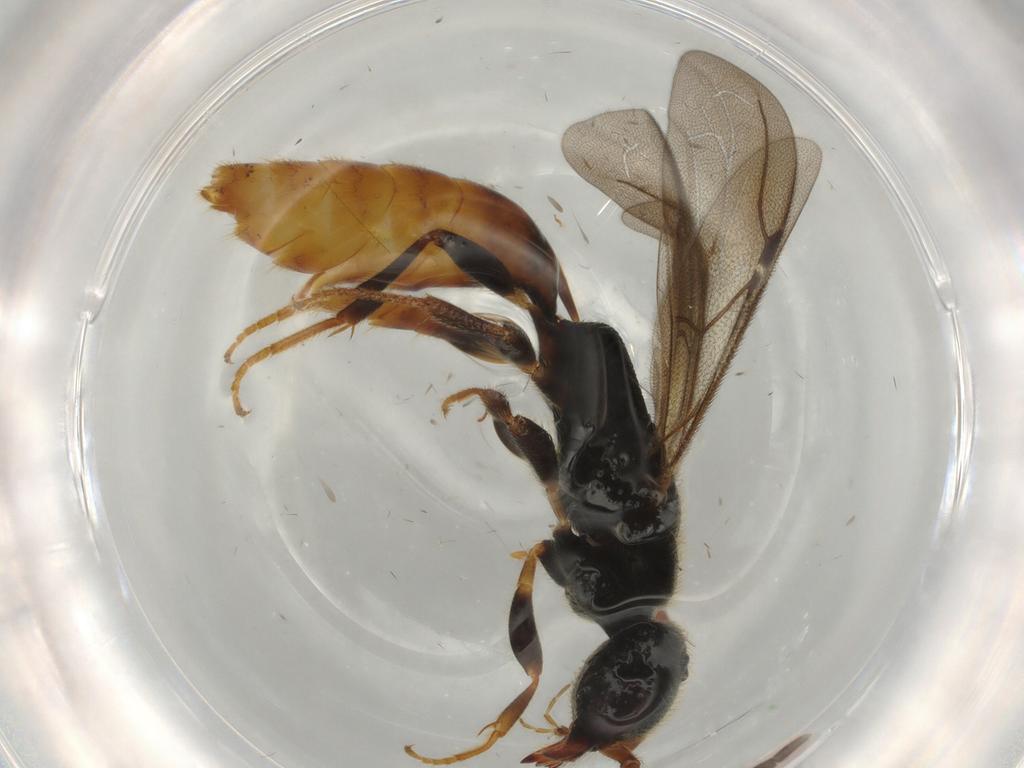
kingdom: Animalia
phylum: Arthropoda
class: Insecta
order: Hymenoptera
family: Bethylidae
